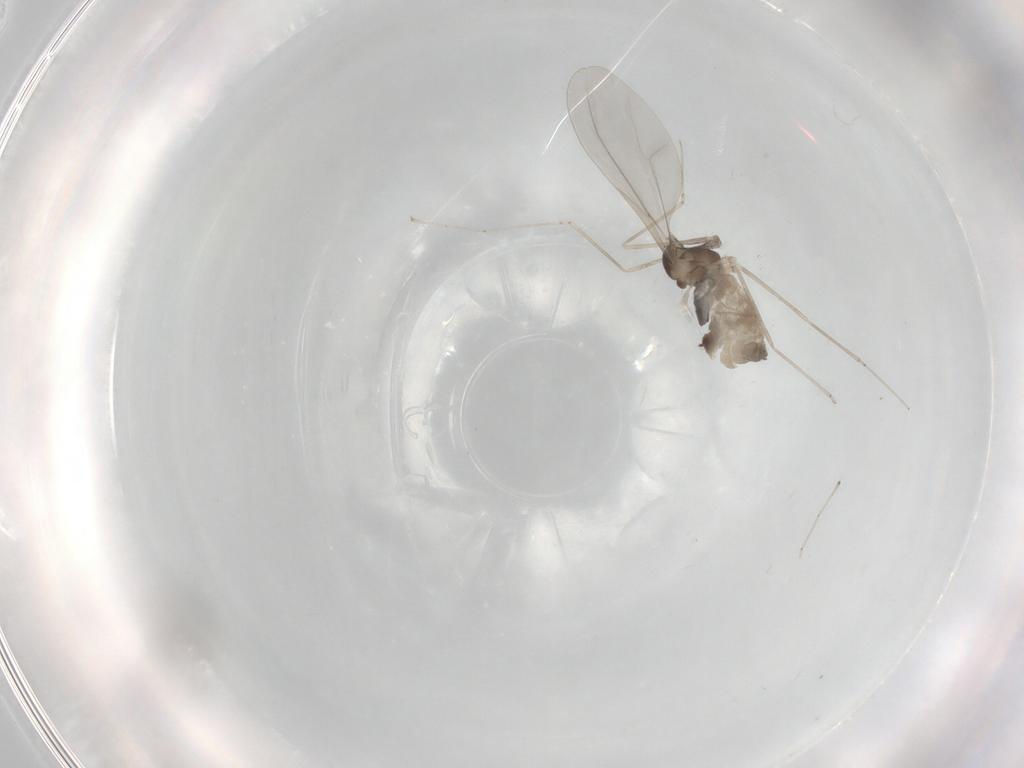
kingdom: Animalia
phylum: Arthropoda
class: Insecta
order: Diptera
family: Cecidomyiidae
